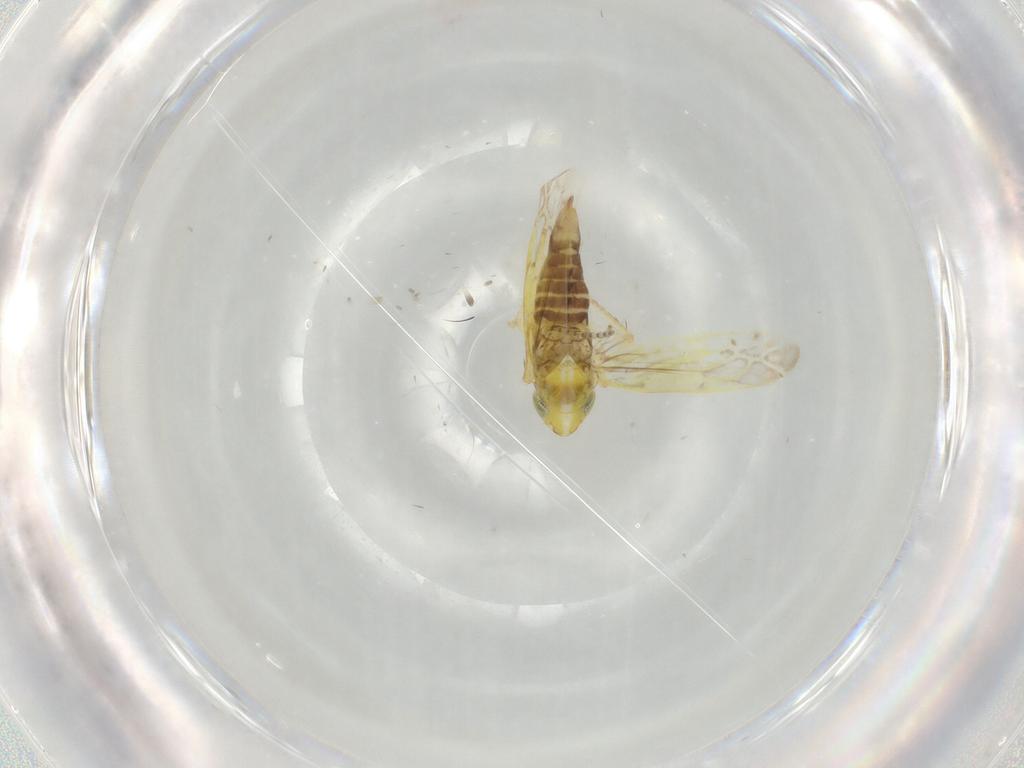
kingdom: Animalia
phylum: Arthropoda
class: Insecta
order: Hemiptera
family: Cicadellidae
